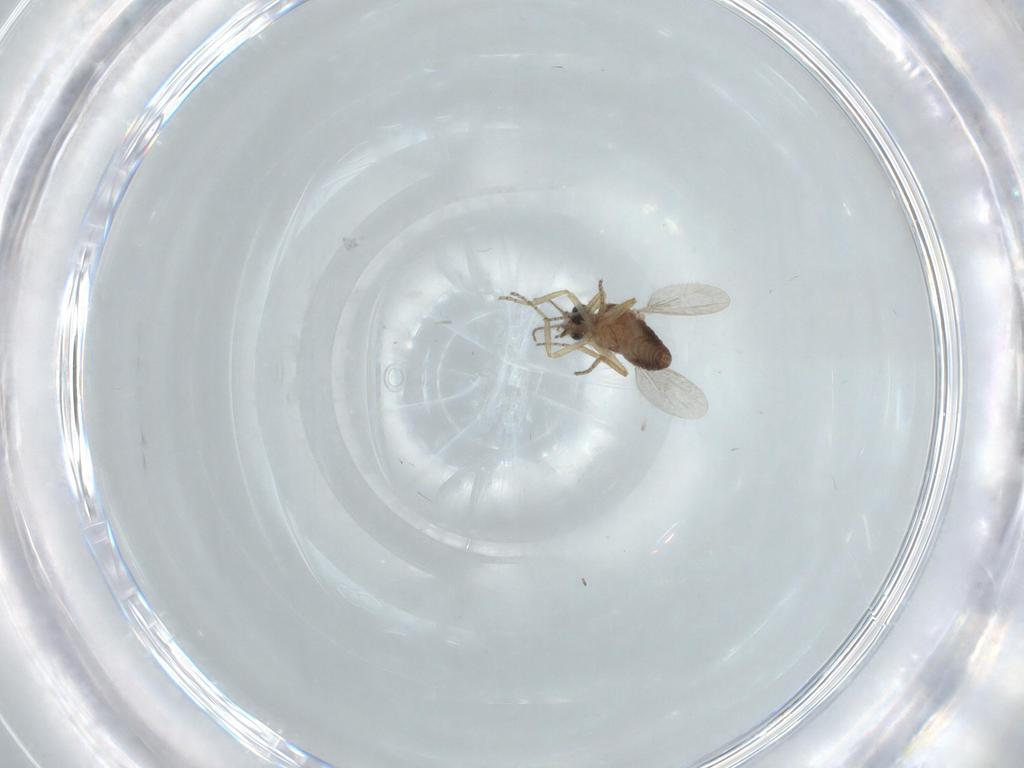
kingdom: Animalia
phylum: Arthropoda
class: Insecta
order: Diptera
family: Ceratopogonidae
